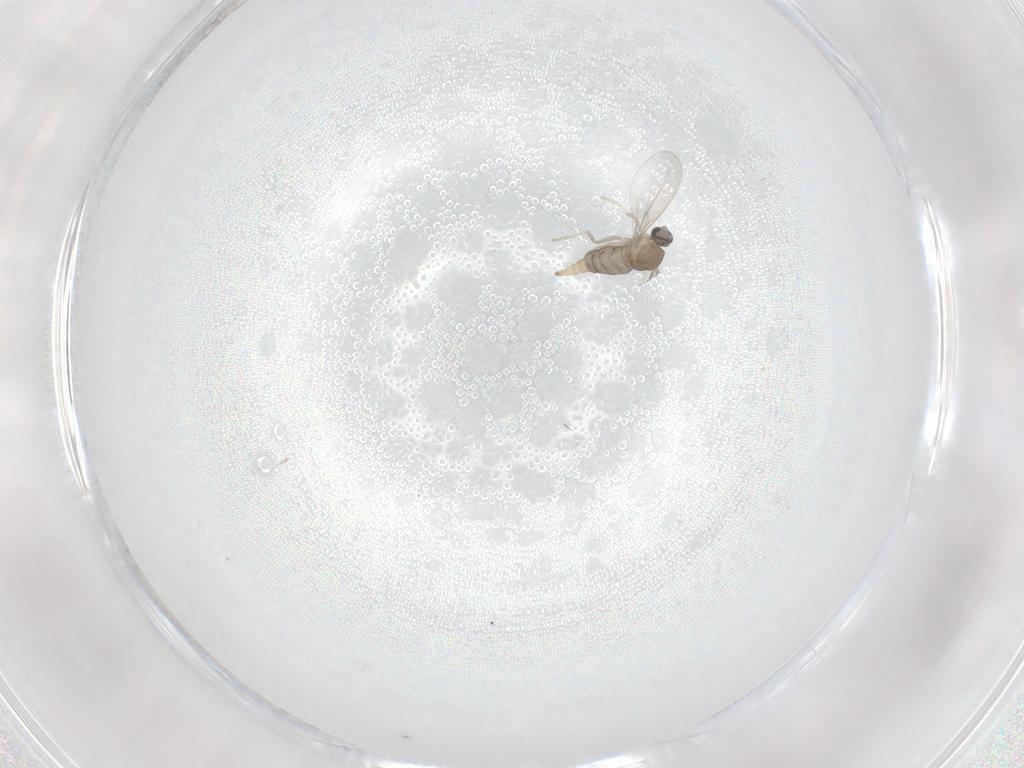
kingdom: Animalia
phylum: Arthropoda
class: Insecta
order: Diptera
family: Cecidomyiidae
